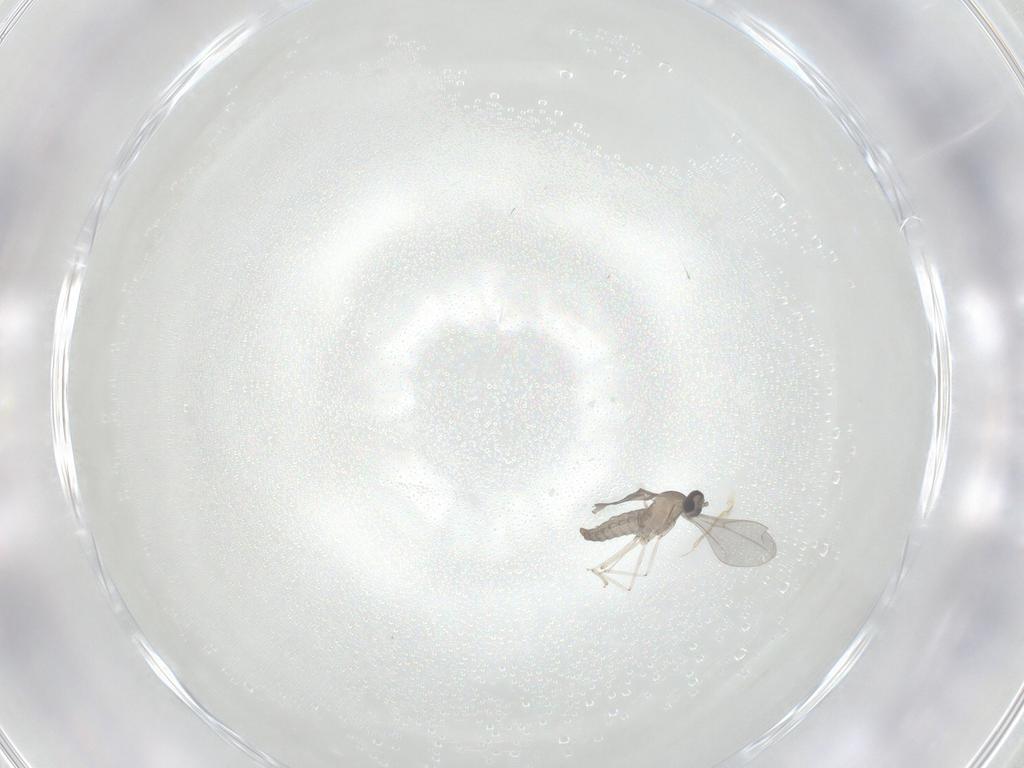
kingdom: Animalia
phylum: Arthropoda
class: Insecta
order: Diptera
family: Cecidomyiidae
